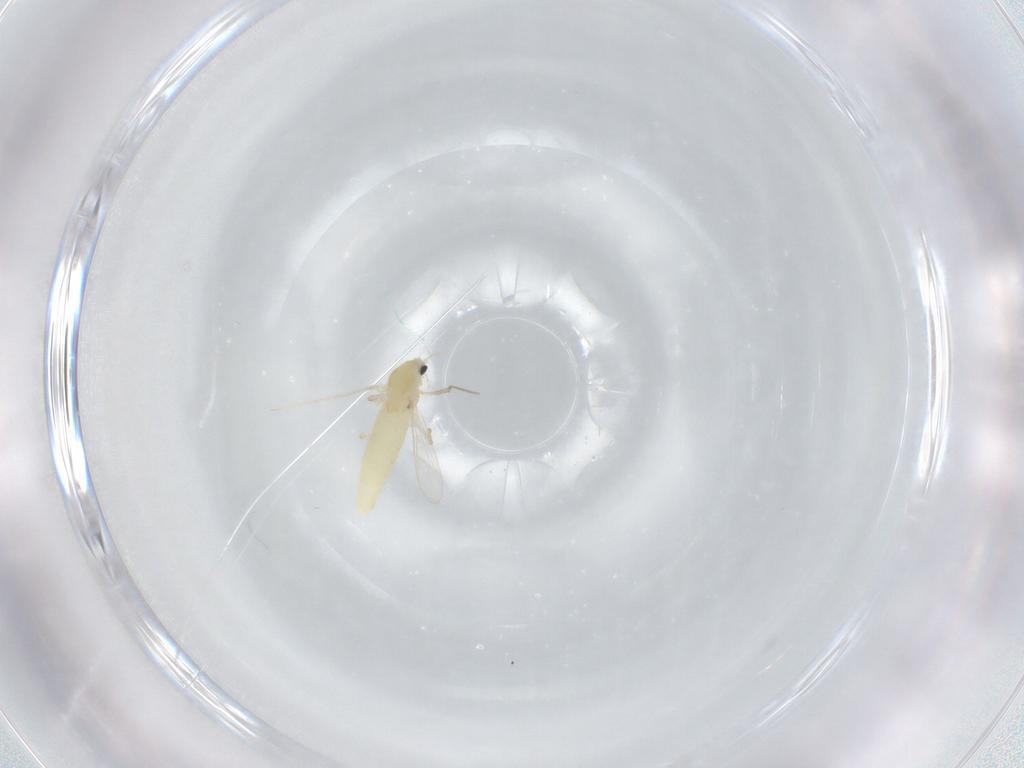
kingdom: Animalia
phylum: Arthropoda
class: Insecta
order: Diptera
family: Chironomidae
